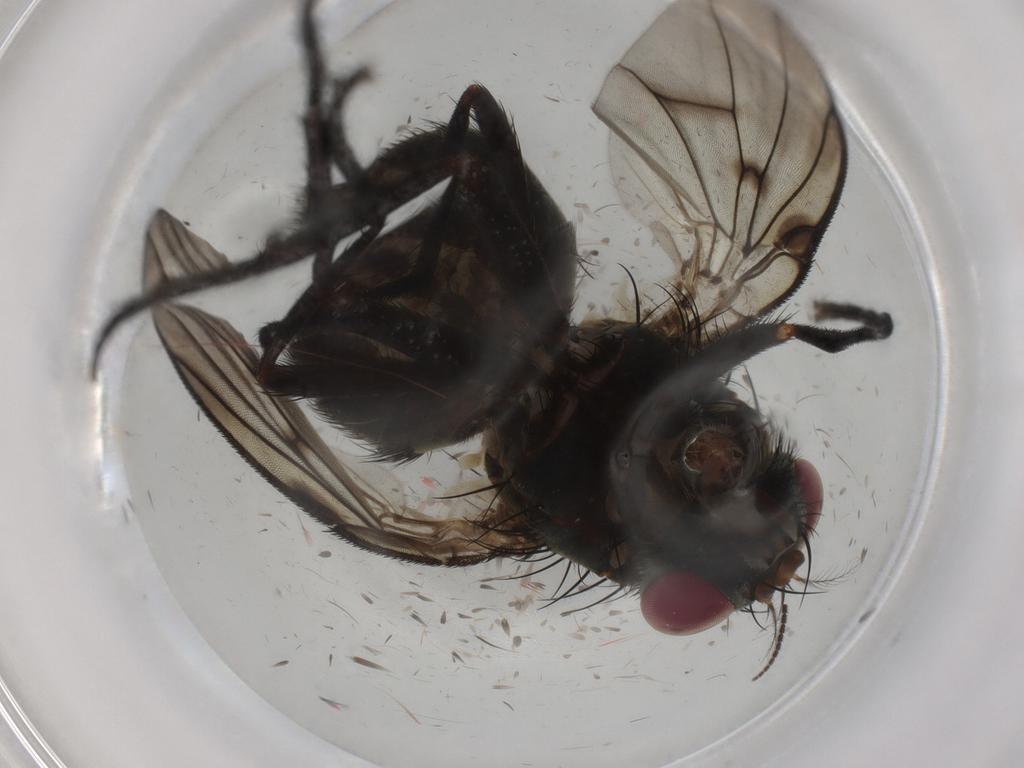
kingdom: Animalia
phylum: Arthropoda
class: Insecta
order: Diptera
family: Muscidae
